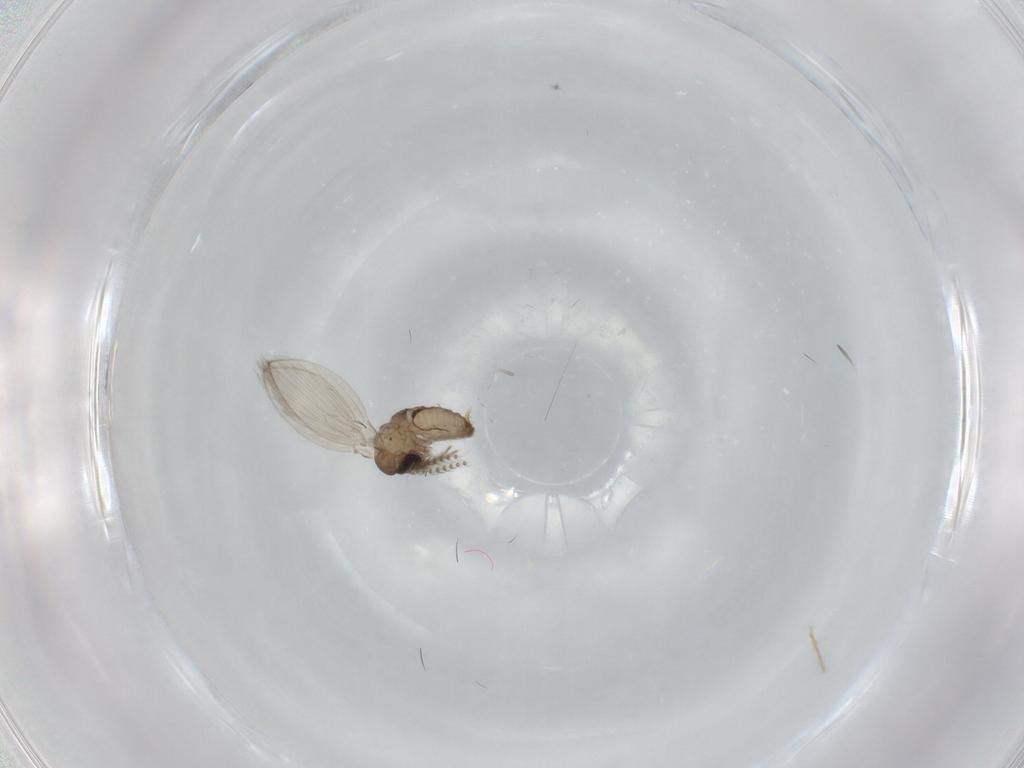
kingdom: Animalia
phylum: Arthropoda
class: Insecta
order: Diptera
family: Psychodidae
